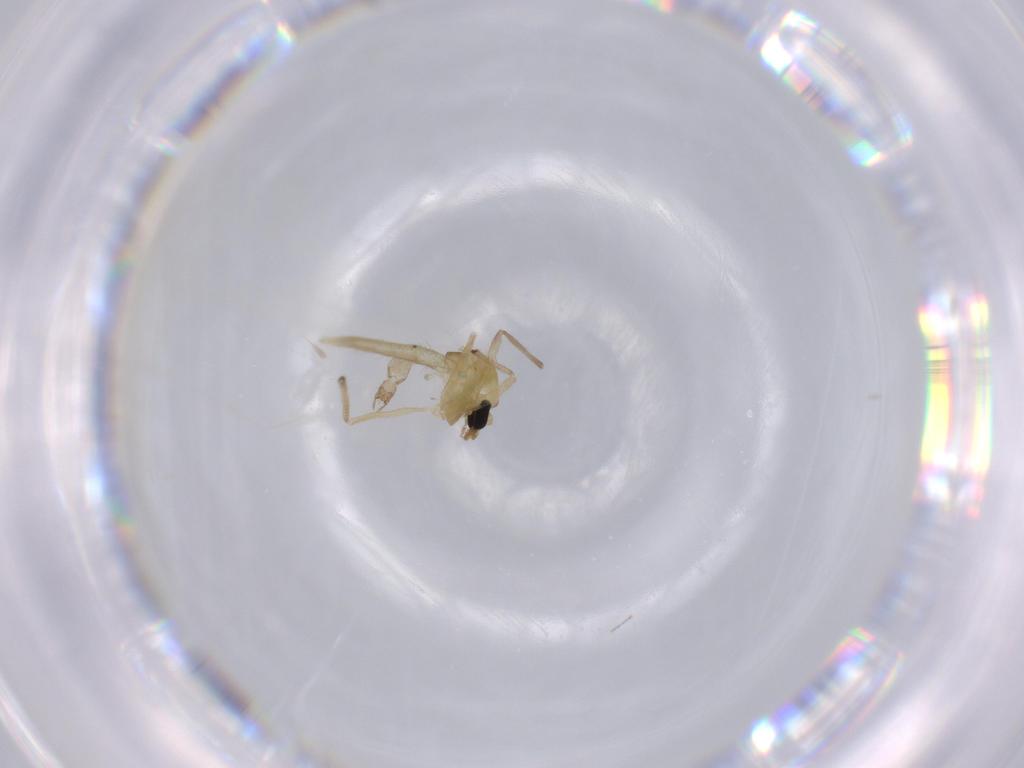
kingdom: Animalia
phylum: Arthropoda
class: Insecta
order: Diptera
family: Chironomidae
